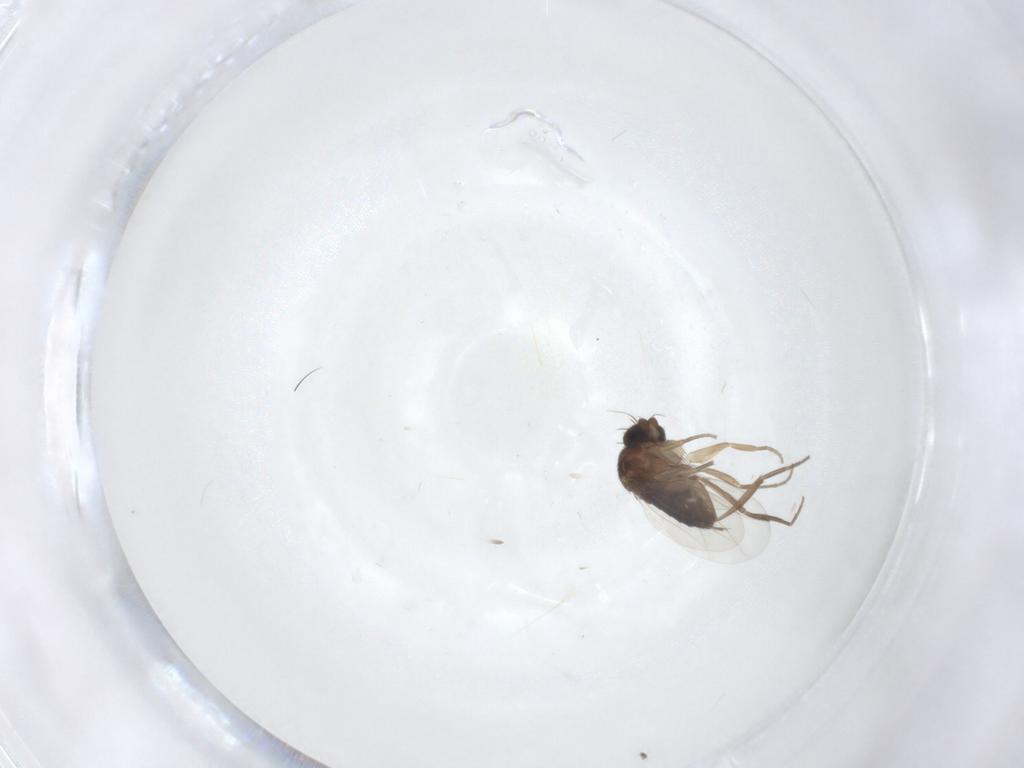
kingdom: Animalia
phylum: Arthropoda
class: Insecta
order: Diptera
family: Phoridae
